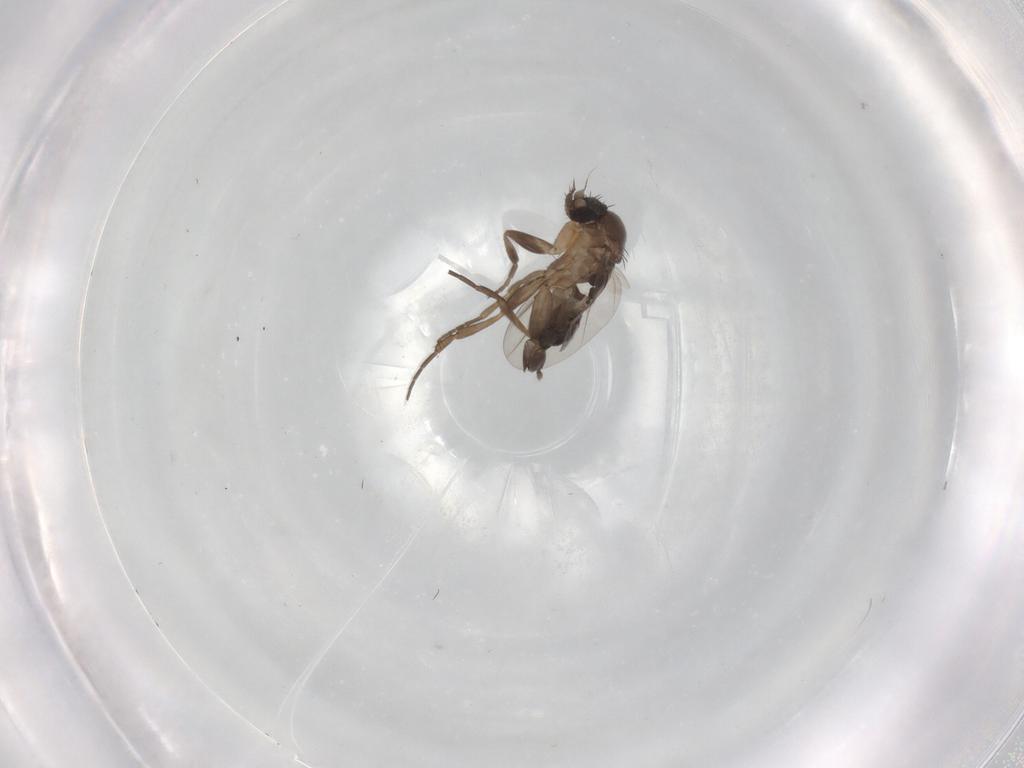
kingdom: Animalia
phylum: Arthropoda
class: Insecta
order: Diptera
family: Phoridae
